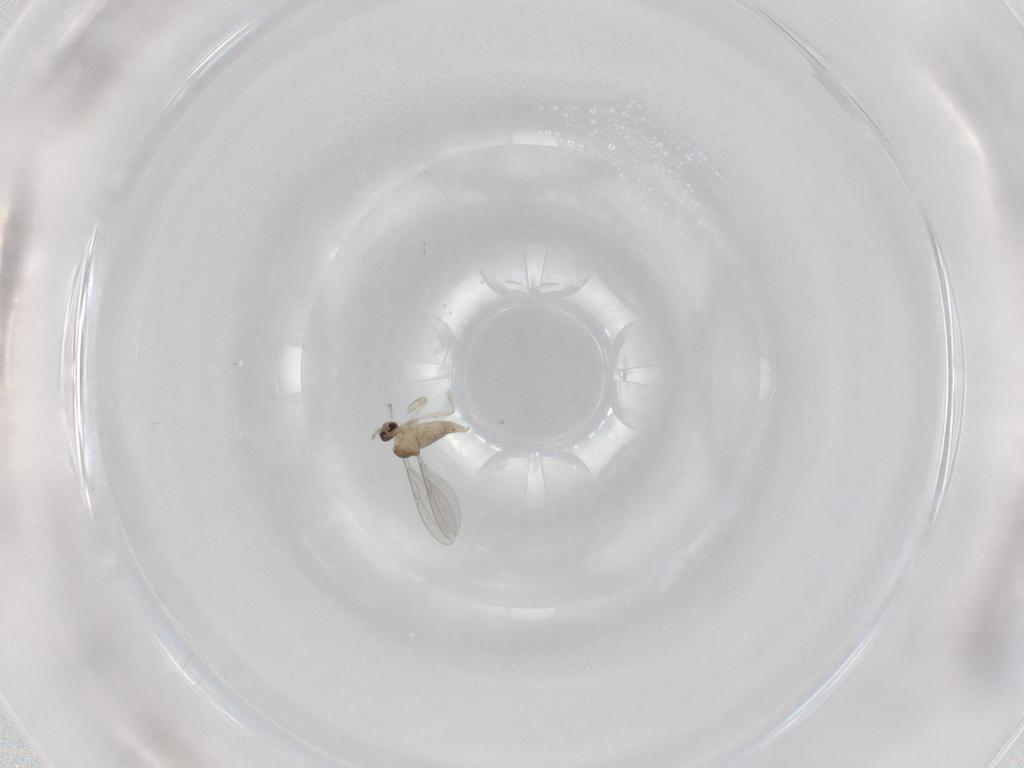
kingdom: Animalia
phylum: Arthropoda
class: Insecta
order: Diptera
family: Cecidomyiidae
